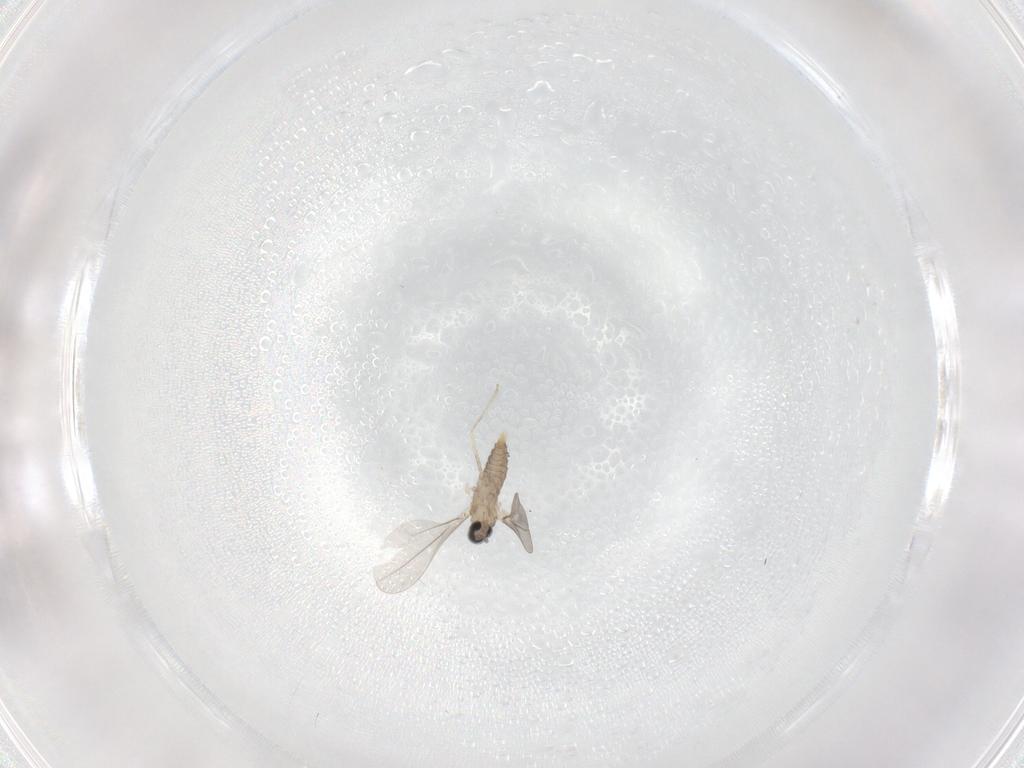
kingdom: Animalia
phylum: Arthropoda
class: Insecta
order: Diptera
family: Cecidomyiidae
